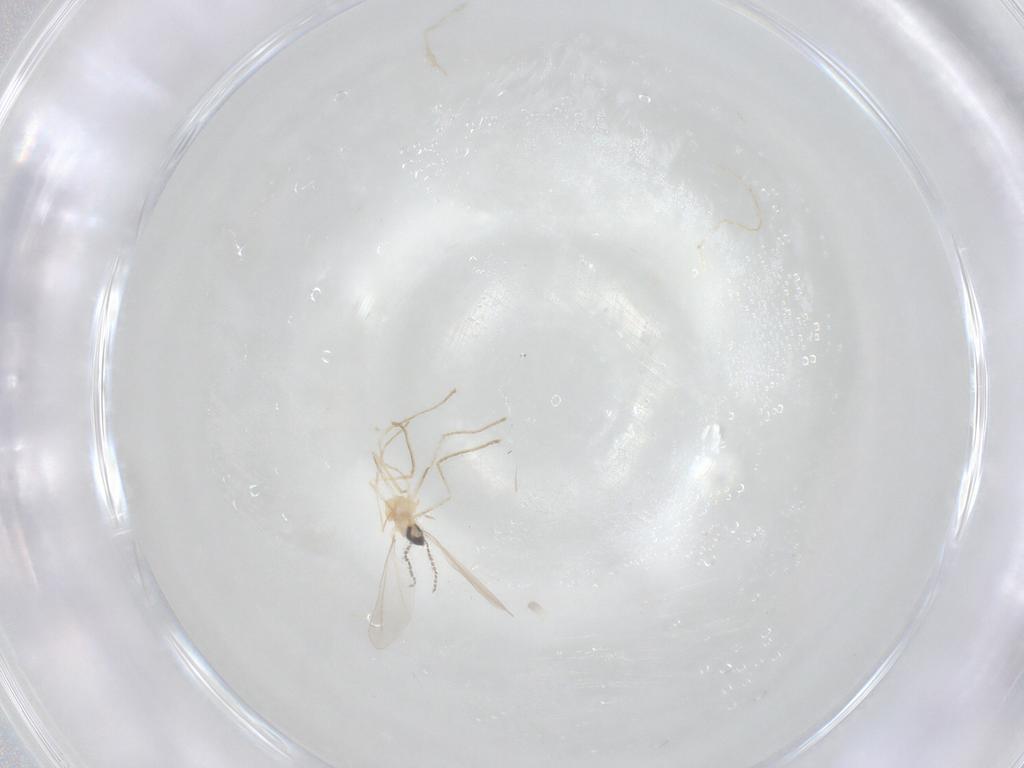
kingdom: Animalia
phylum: Arthropoda
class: Insecta
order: Diptera
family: Cecidomyiidae
